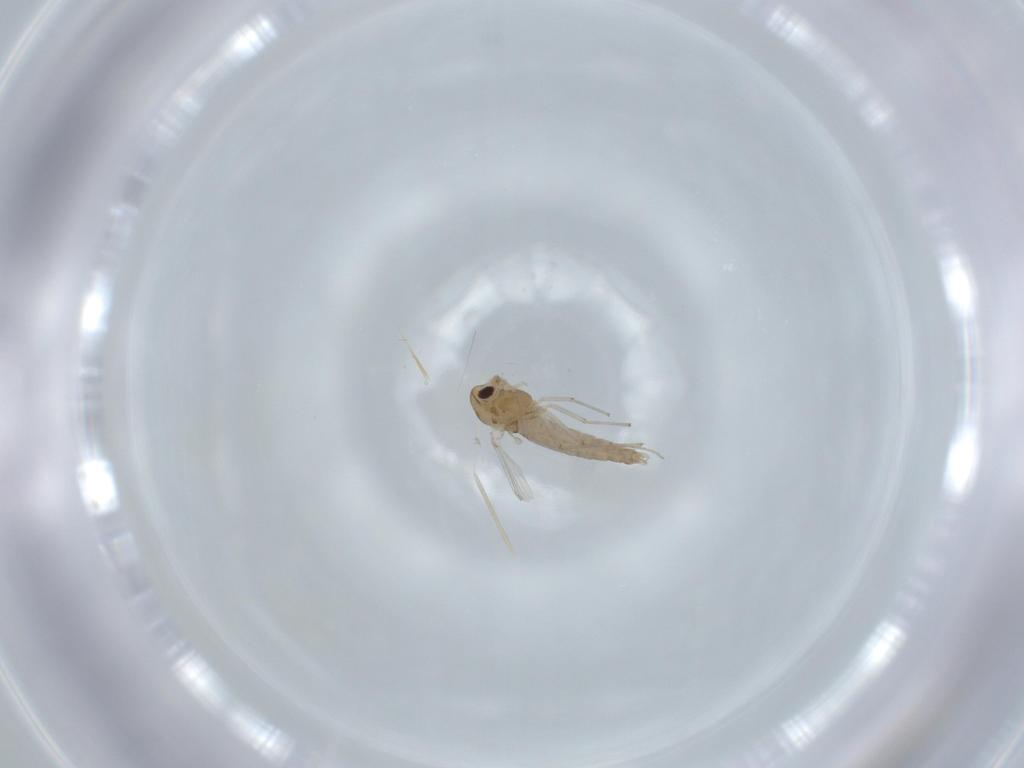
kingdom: Animalia
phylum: Arthropoda
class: Insecta
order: Diptera
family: Chironomidae
